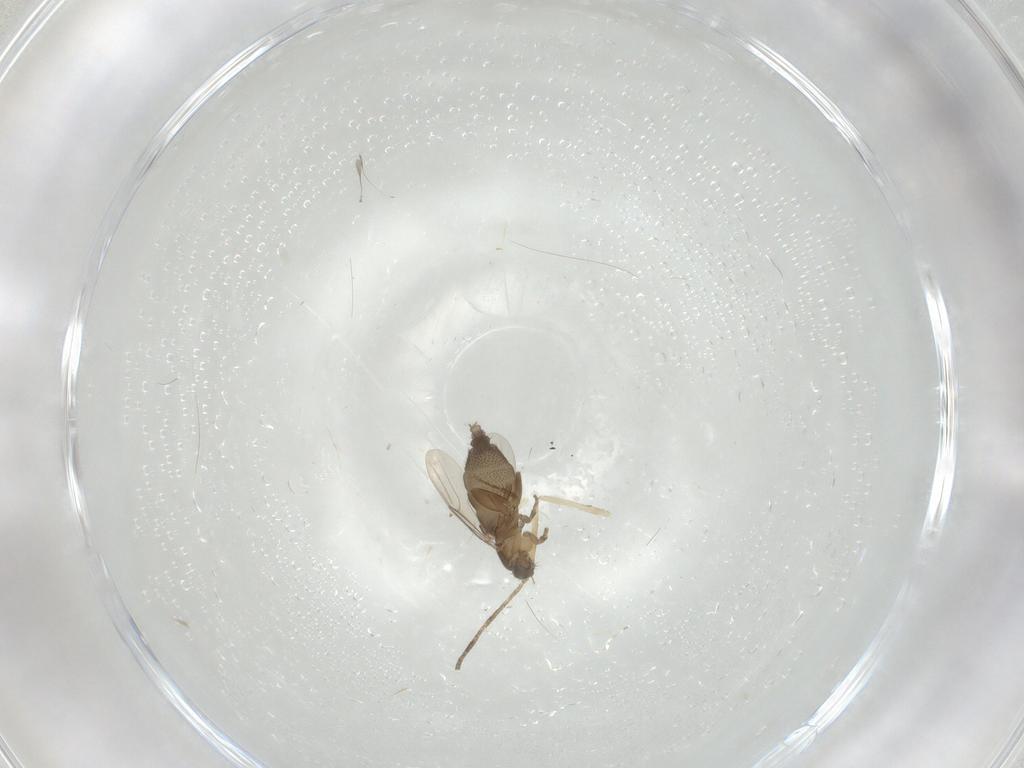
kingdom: Animalia
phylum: Arthropoda
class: Insecta
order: Diptera
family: Phoridae
